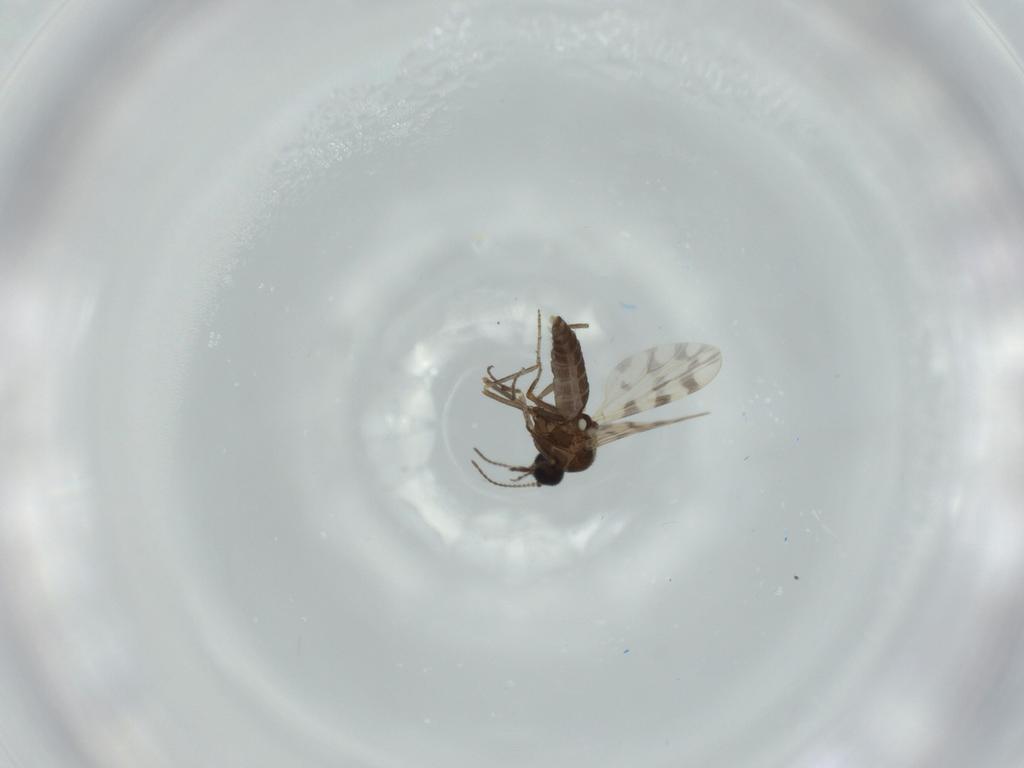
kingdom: Animalia
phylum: Arthropoda
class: Insecta
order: Diptera
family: Ceratopogonidae
